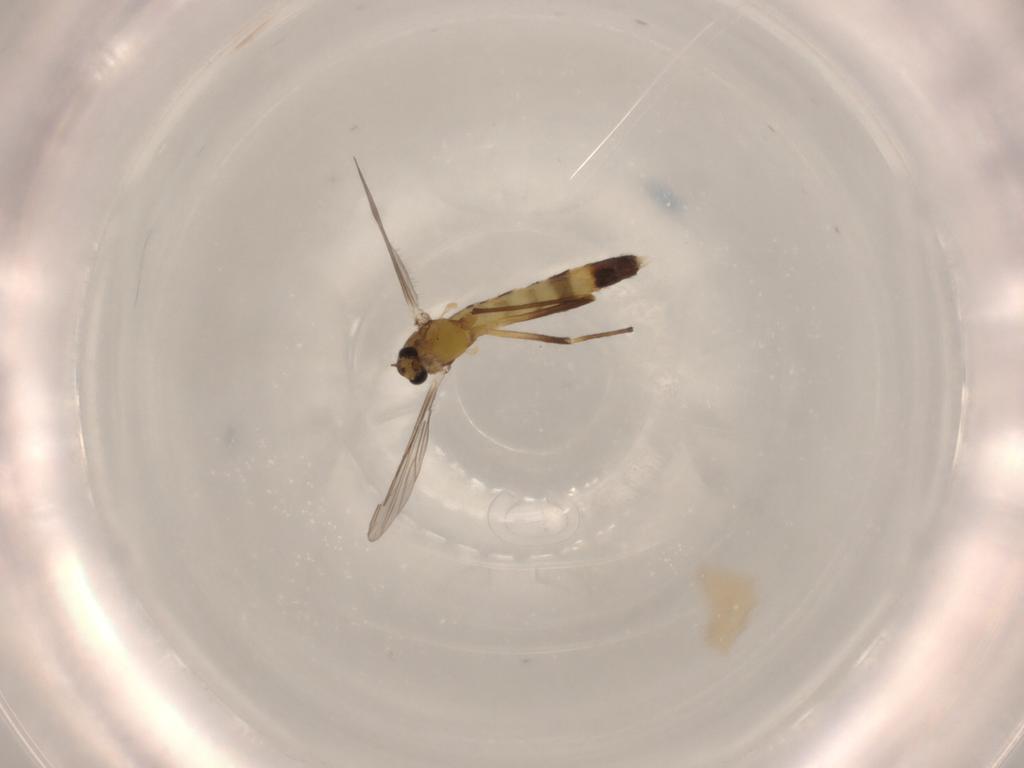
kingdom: Animalia
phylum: Arthropoda
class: Insecta
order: Diptera
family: Chironomidae
